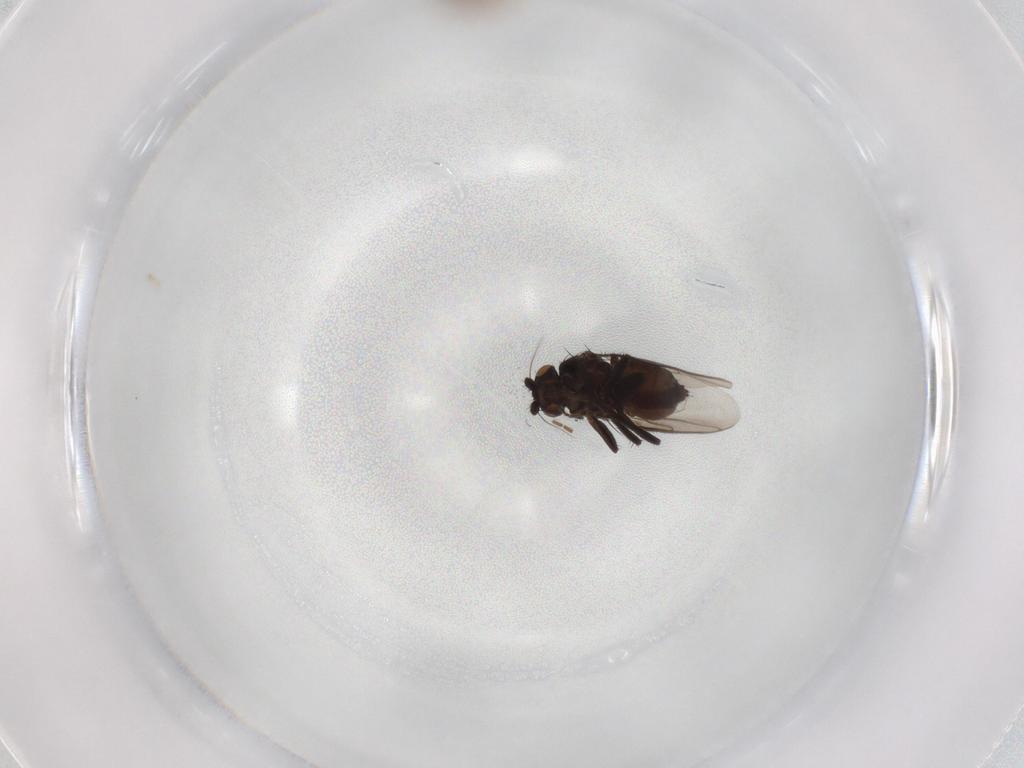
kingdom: Animalia
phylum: Arthropoda
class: Insecta
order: Diptera
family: Drosophilidae
